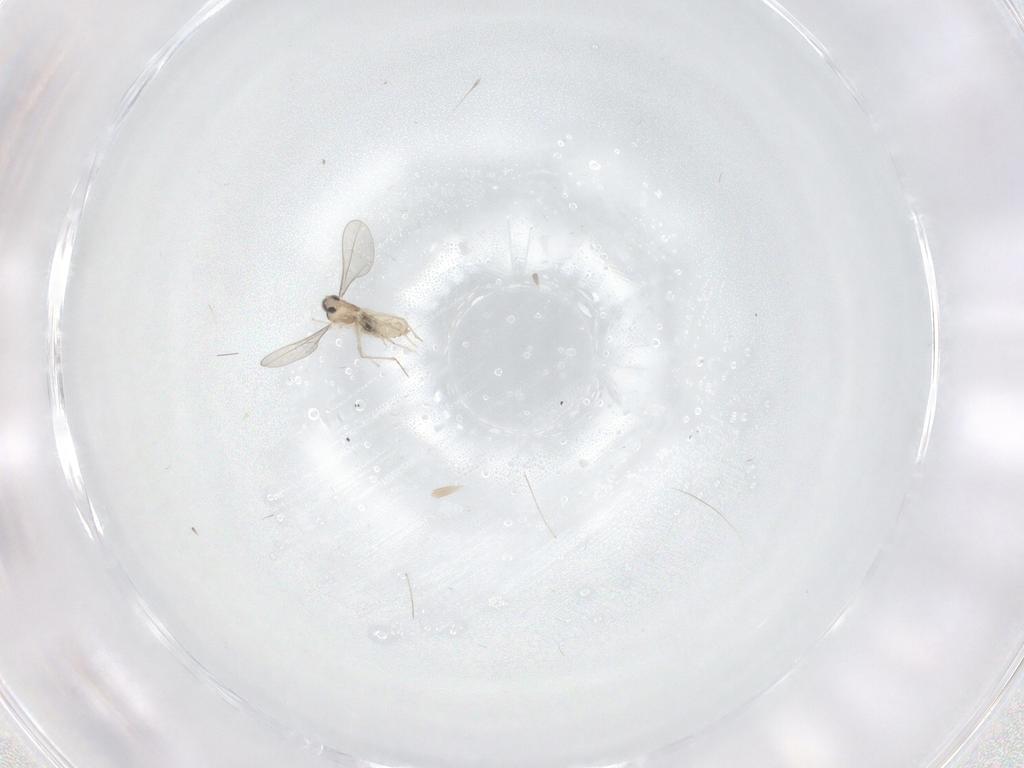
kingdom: Animalia
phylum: Arthropoda
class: Insecta
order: Diptera
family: Cecidomyiidae
